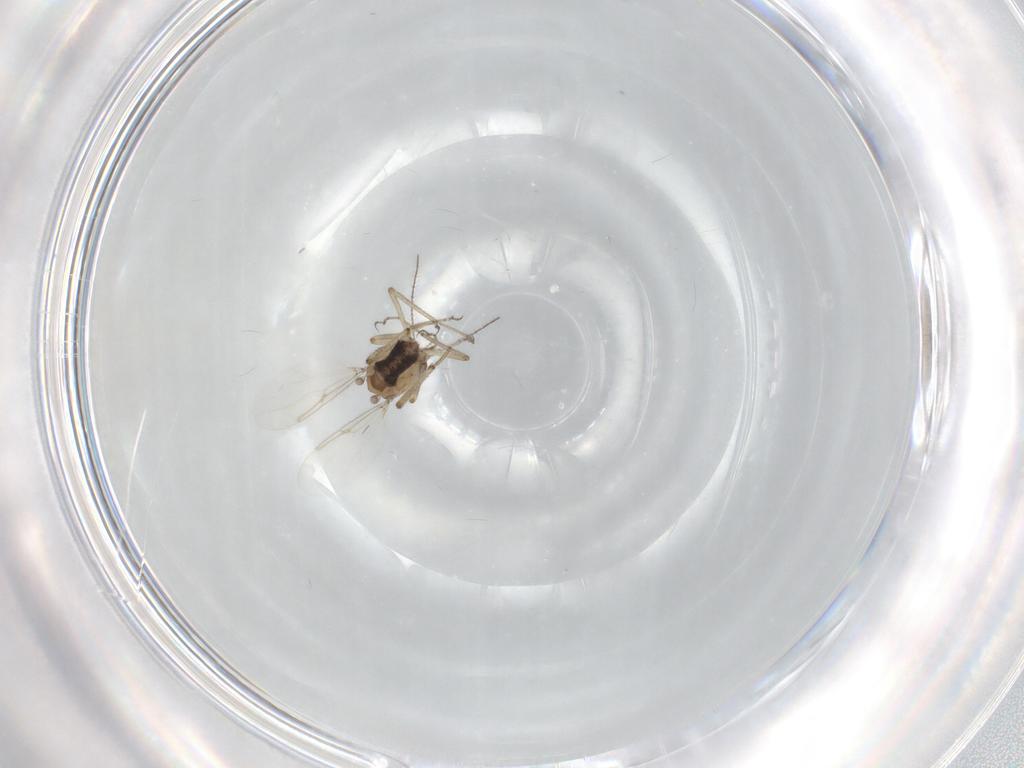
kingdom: Animalia
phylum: Arthropoda
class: Insecta
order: Diptera
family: Ceratopogonidae
